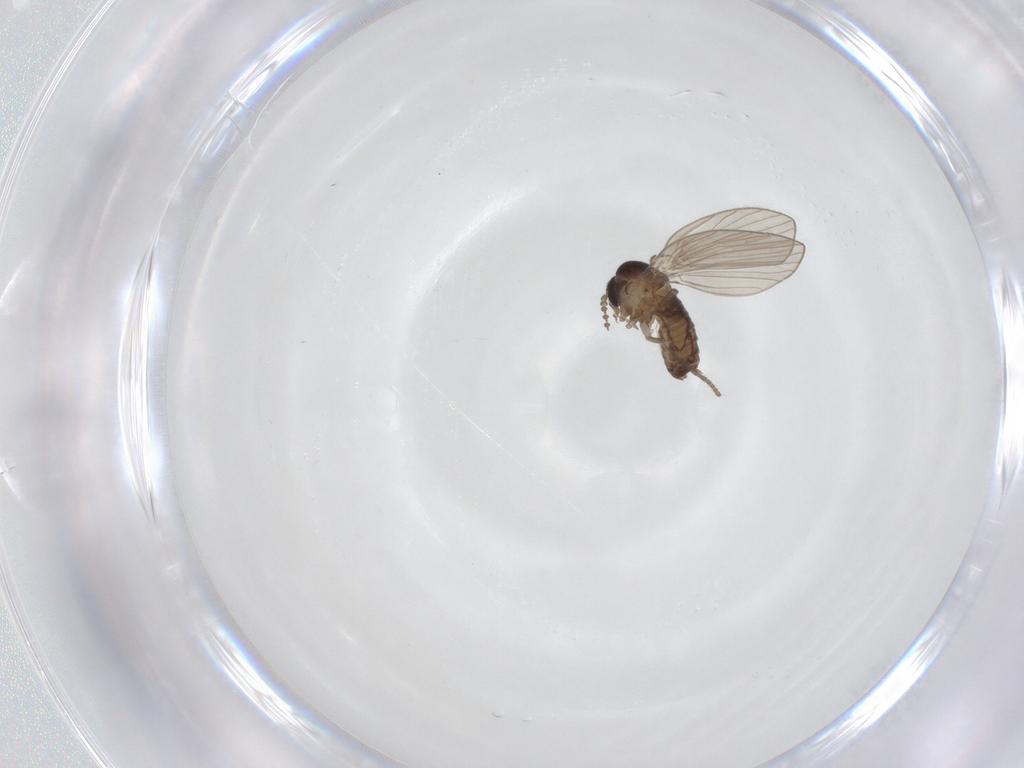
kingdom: Animalia
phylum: Arthropoda
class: Insecta
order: Diptera
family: Psychodidae
